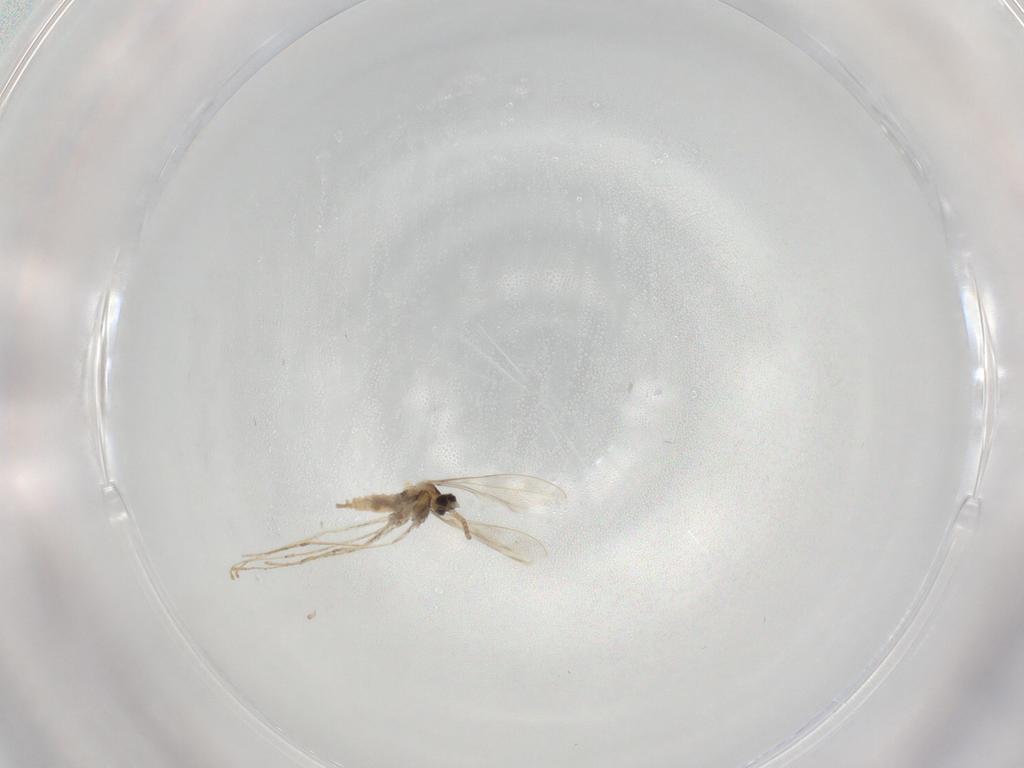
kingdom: Animalia
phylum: Arthropoda
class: Insecta
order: Diptera
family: Cecidomyiidae
